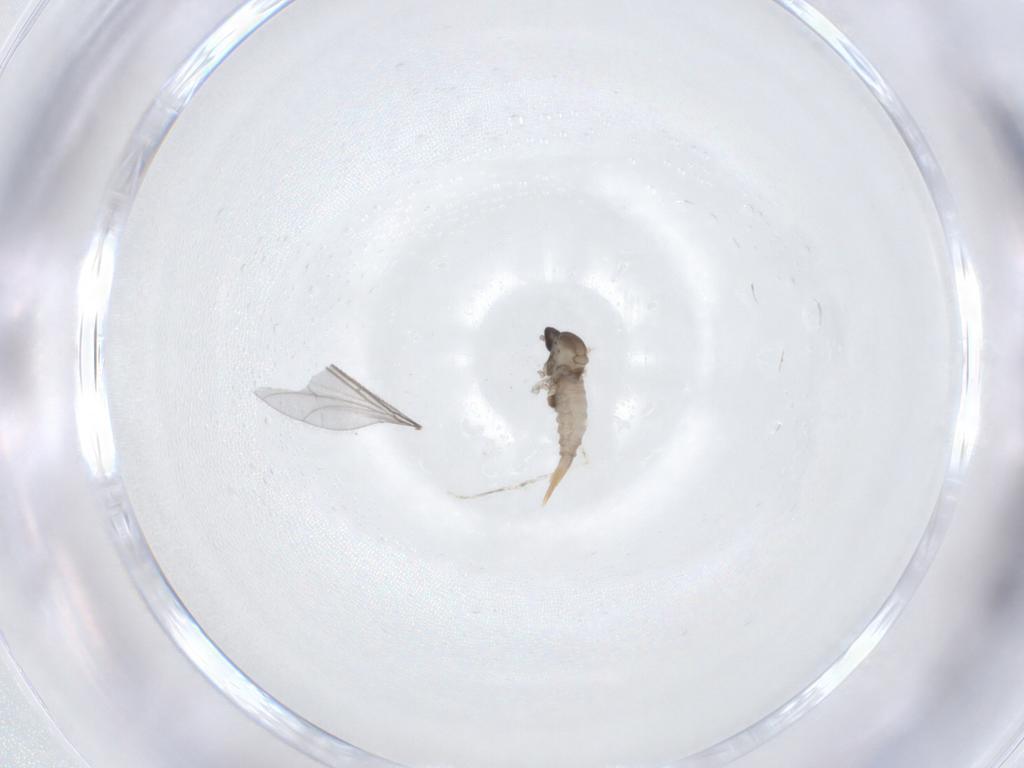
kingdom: Animalia
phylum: Arthropoda
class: Insecta
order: Diptera
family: Cecidomyiidae
